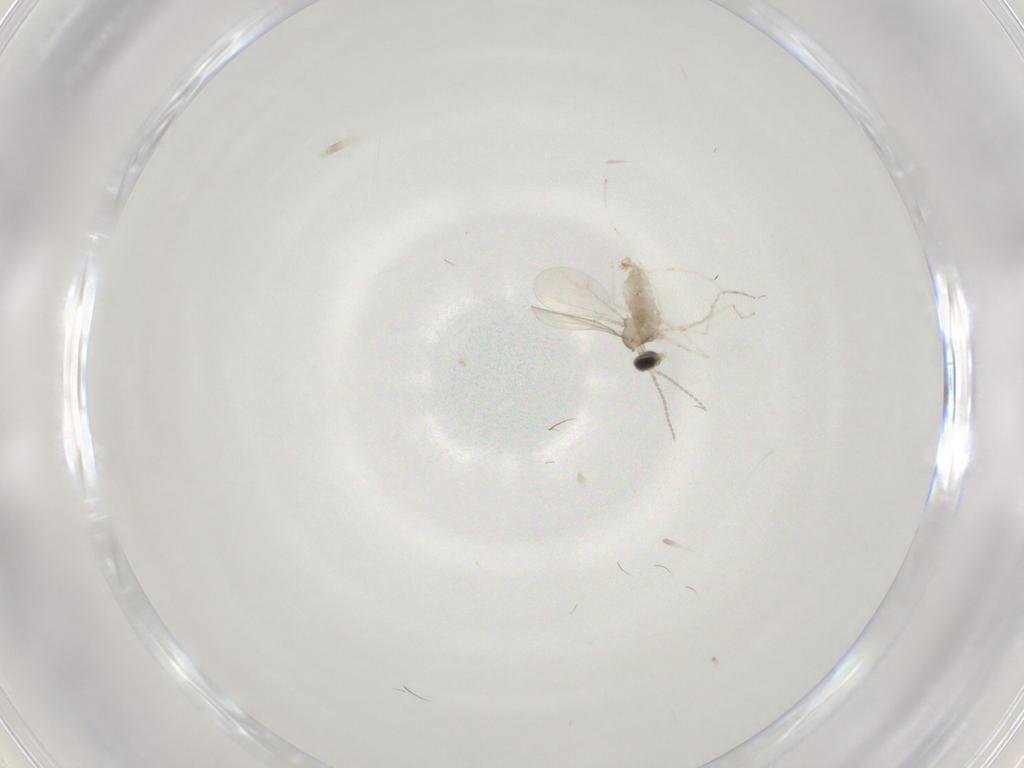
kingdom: Animalia
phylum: Arthropoda
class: Insecta
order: Diptera
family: Cecidomyiidae
